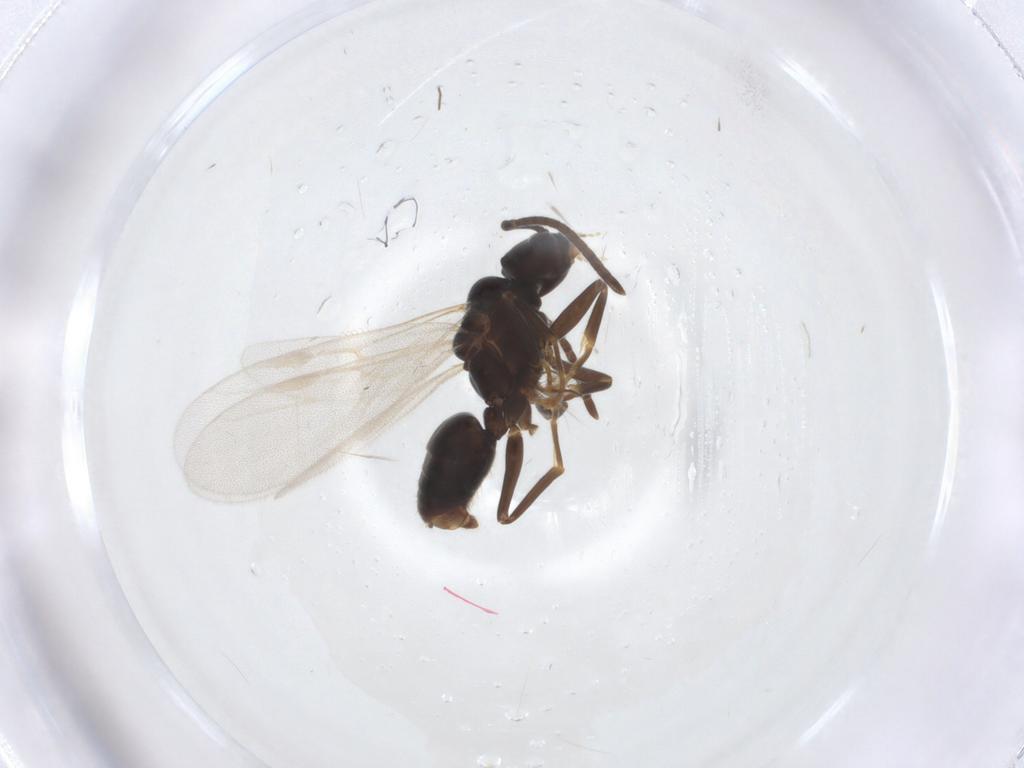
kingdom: Animalia
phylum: Arthropoda
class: Insecta
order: Hymenoptera
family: Formicidae
